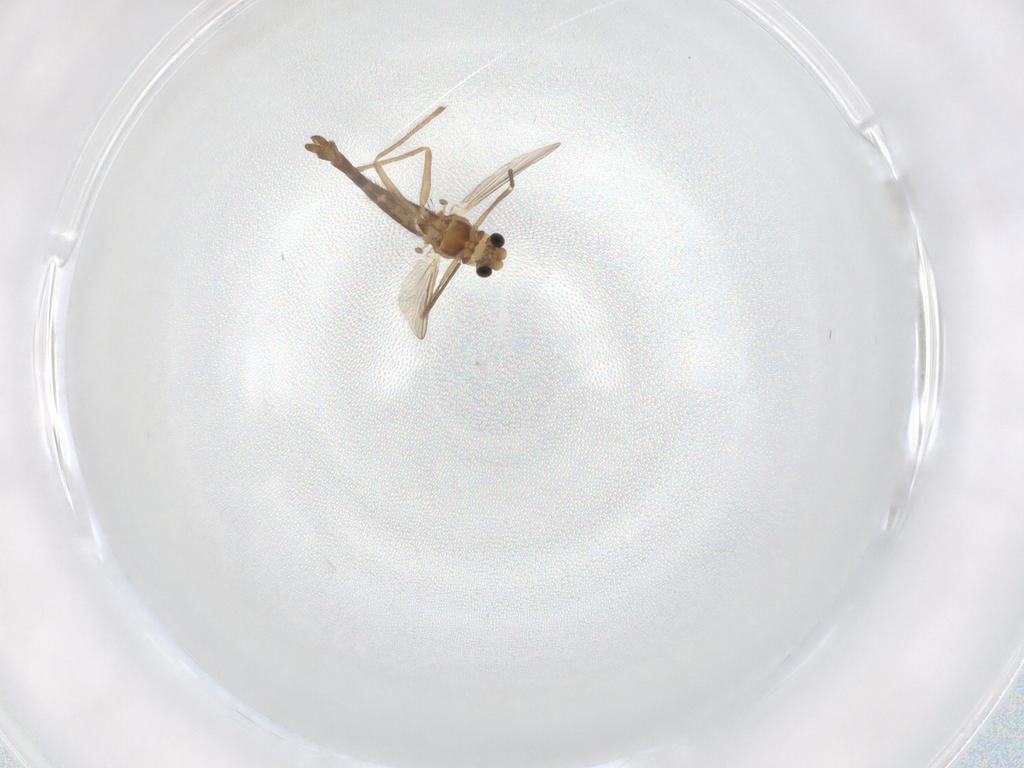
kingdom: Animalia
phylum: Arthropoda
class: Insecta
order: Diptera
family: Chironomidae
